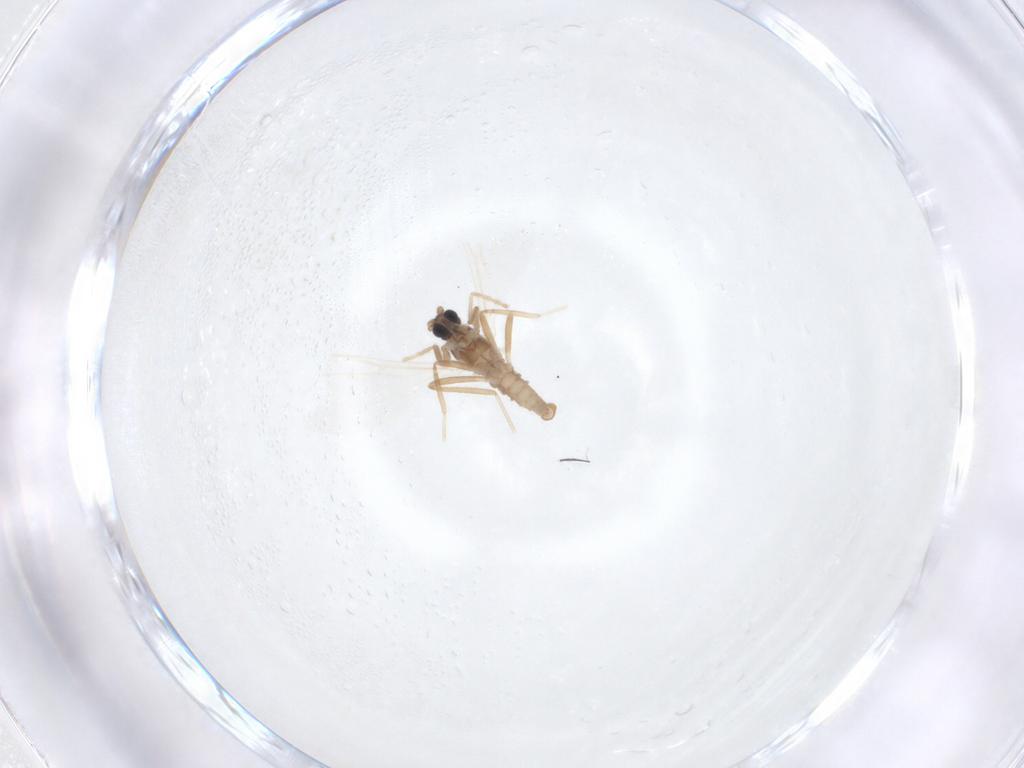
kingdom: Animalia
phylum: Arthropoda
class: Insecta
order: Diptera
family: Cecidomyiidae
